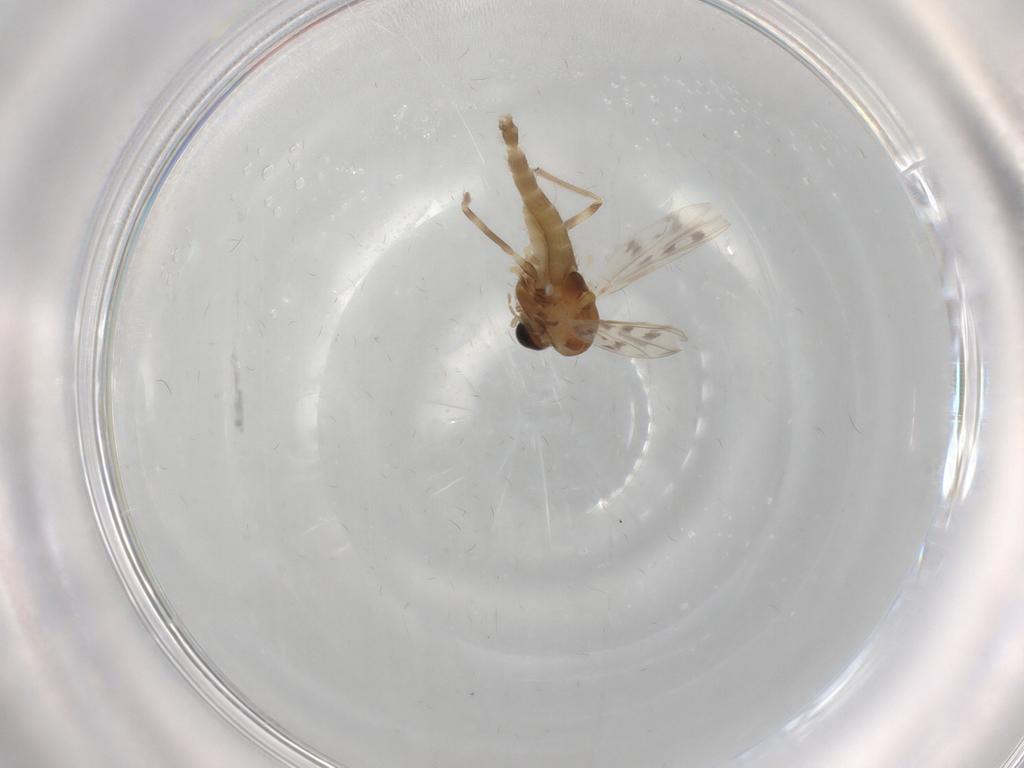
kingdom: Animalia
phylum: Arthropoda
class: Insecta
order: Diptera
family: Chironomidae
